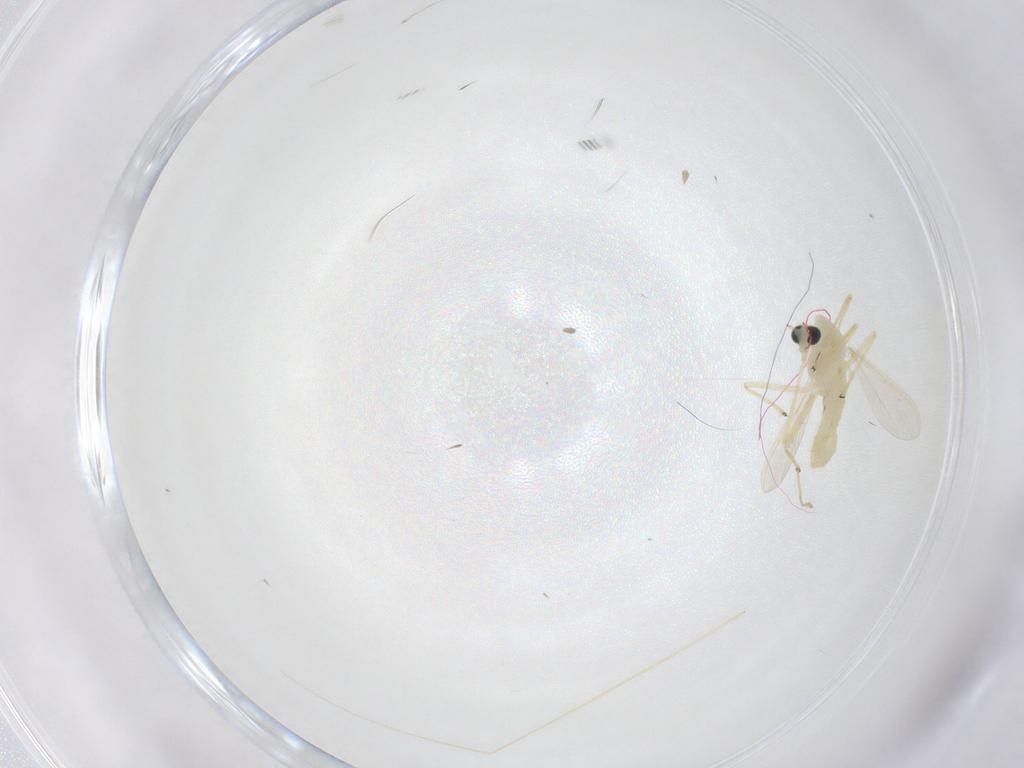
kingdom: Animalia
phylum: Arthropoda
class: Insecta
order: Diptera
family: Chironomidae
